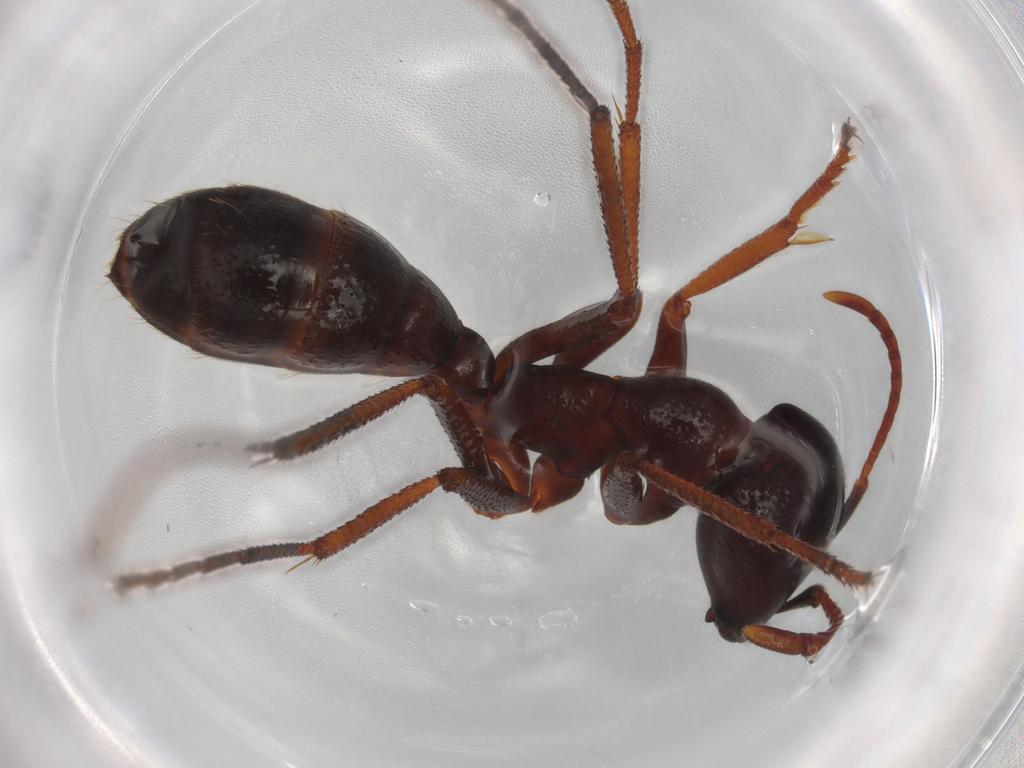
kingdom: Animalia
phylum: Arthropoda
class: Insecta
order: Hymenoptera
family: Formicidae
